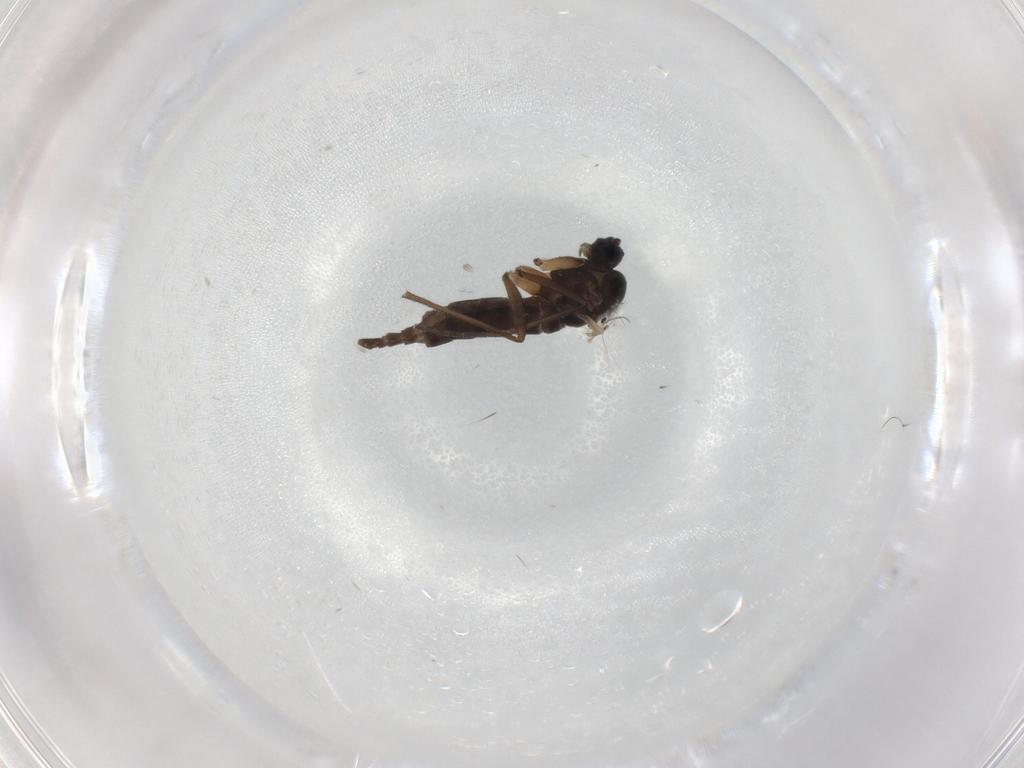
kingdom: Animalia
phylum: Arthropoda
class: Insecta
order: Diptera
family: Sciaridae
